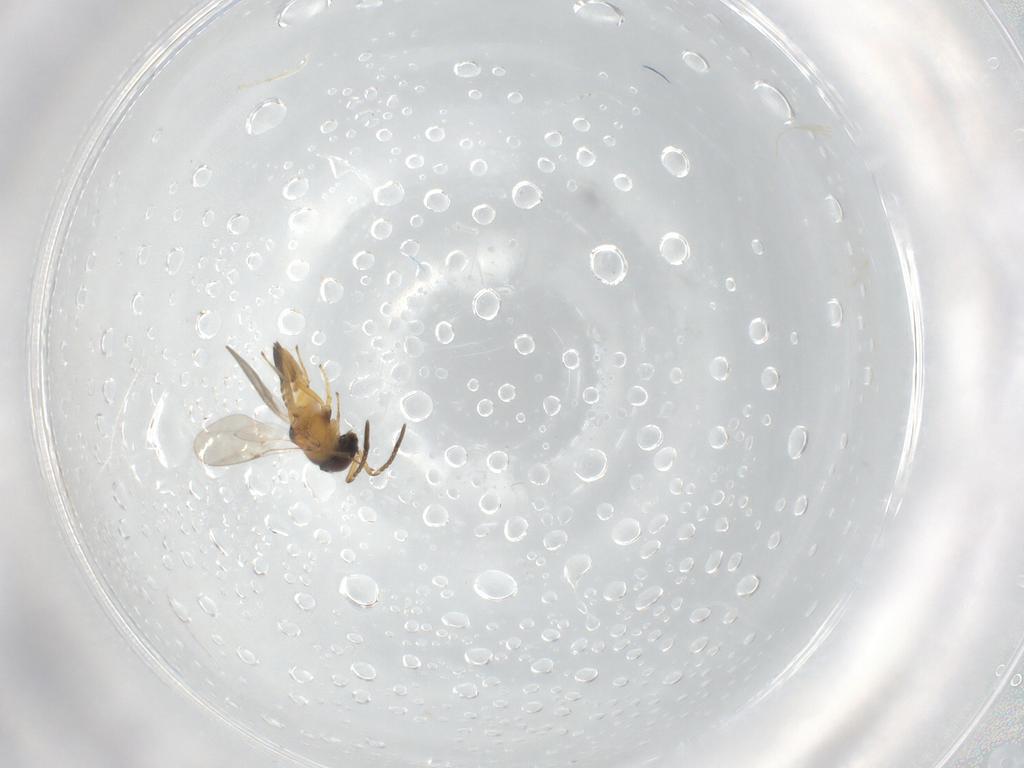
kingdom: Animalia
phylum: Arthropoda
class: Insecta
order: Hymenoptera
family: Encyrtidae
